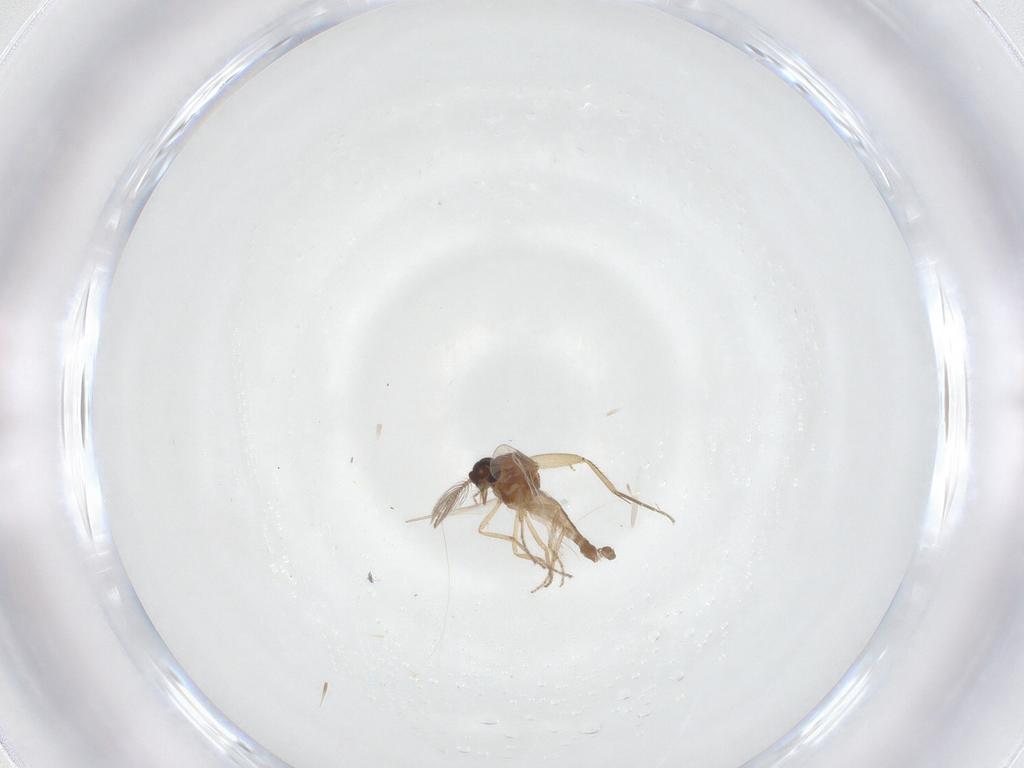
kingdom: Animalia
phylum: Arthropoda
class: Insecta
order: Diptera
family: Ceratopogonidae
